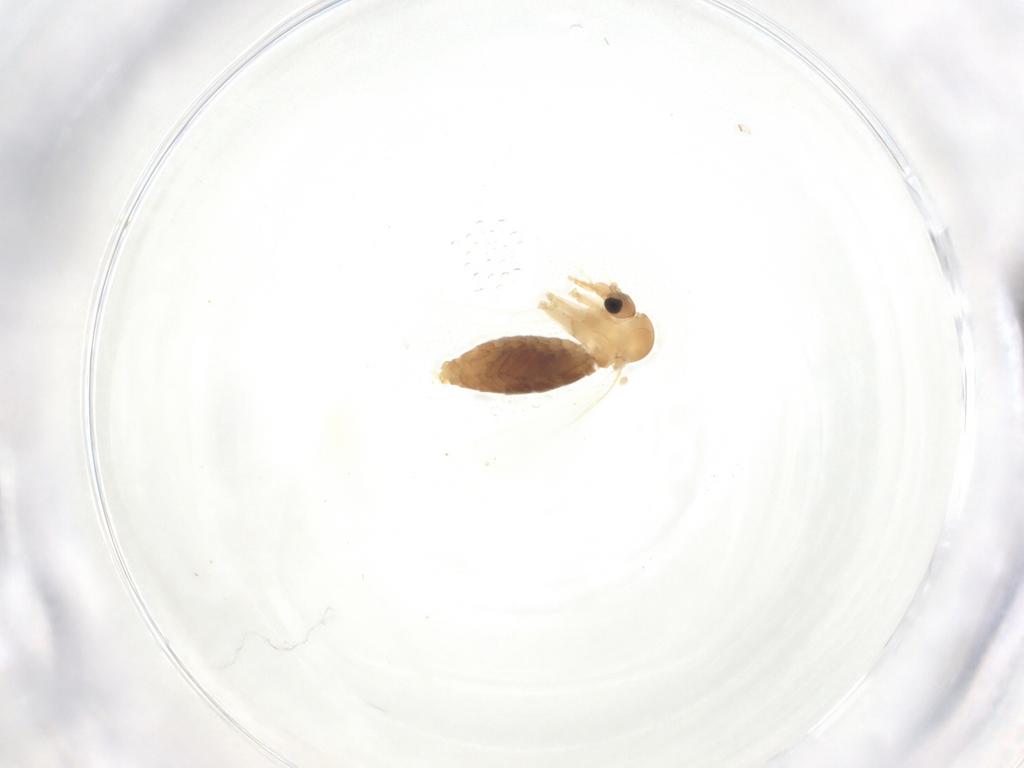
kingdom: Animalia
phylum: Arthropoda
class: Insecta
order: Diptera
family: Psychodidae
